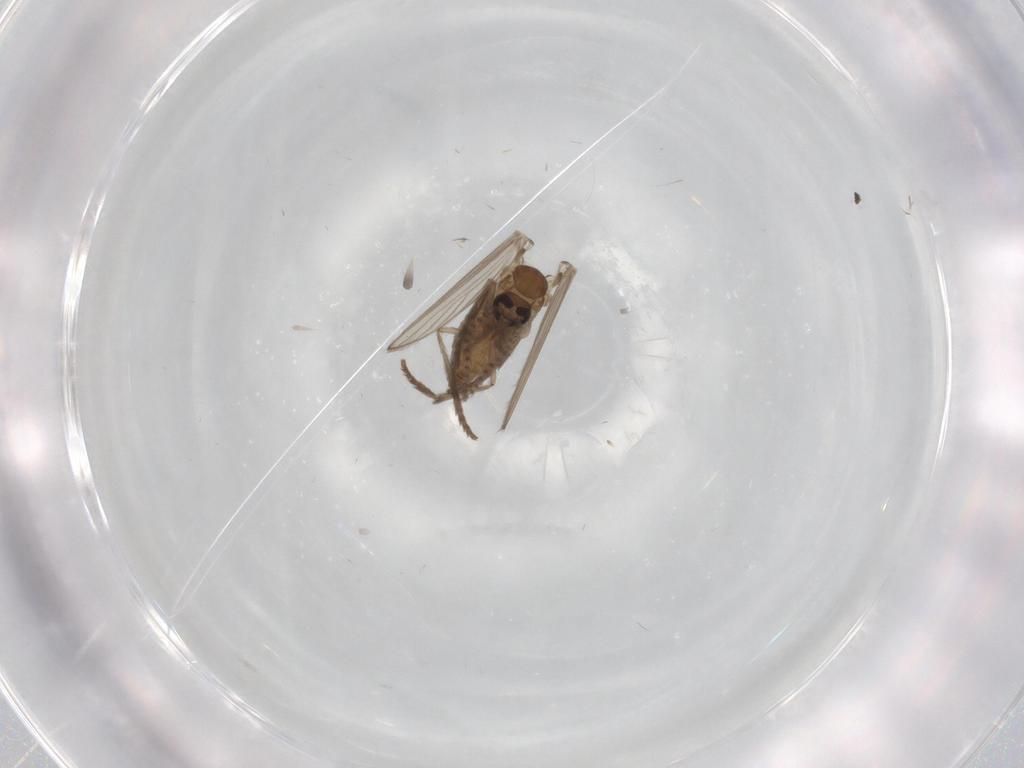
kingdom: Animalia
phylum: Arthropoda
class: Insecta
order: Diptera
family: Psychodidae
